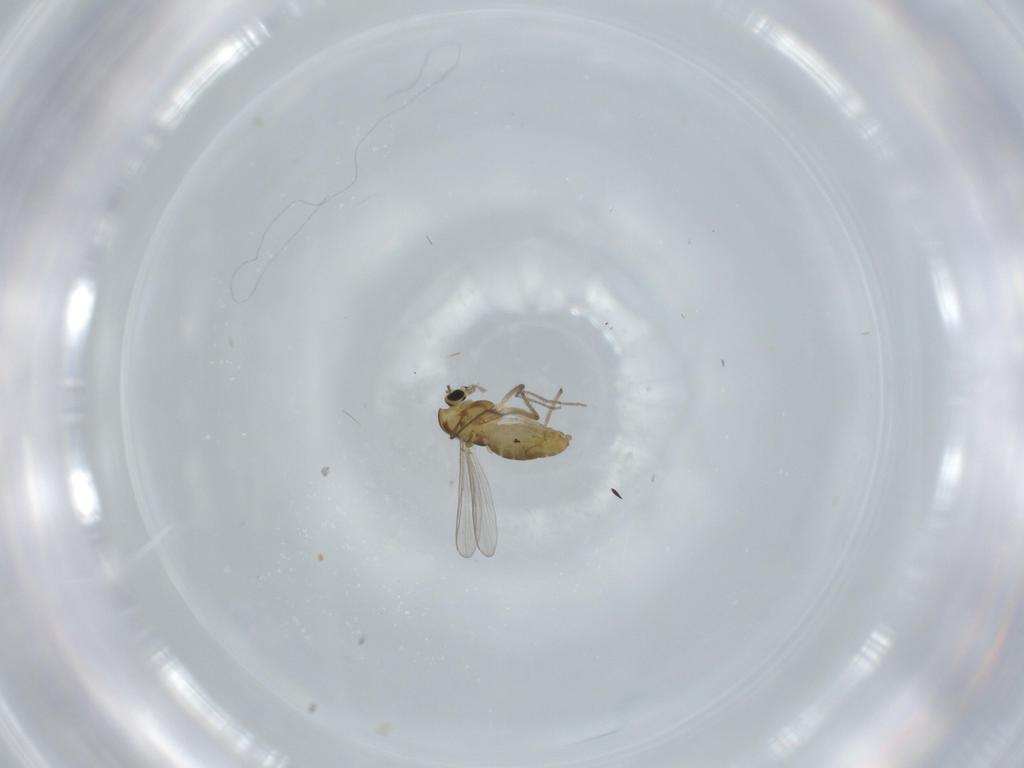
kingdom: Animalia
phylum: Arthropoda
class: Insecta
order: Diptera
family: Chironomidae
